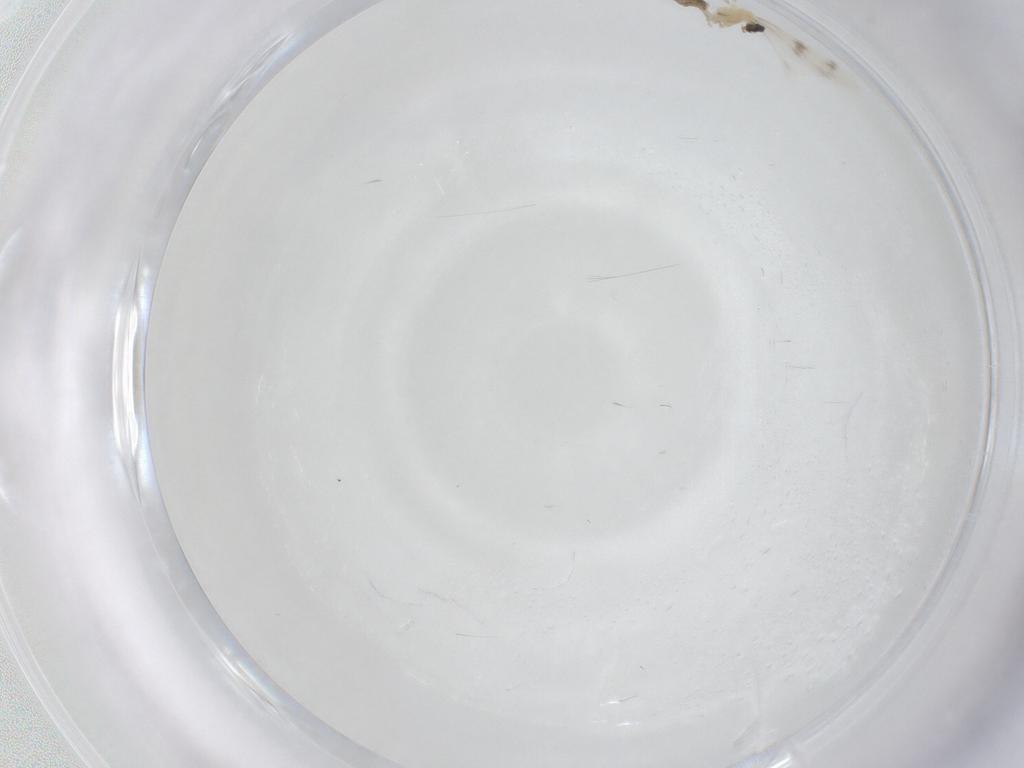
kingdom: Animalia
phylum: Arthropoda
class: Insecta
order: Diptera
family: Cecidomyiidae
